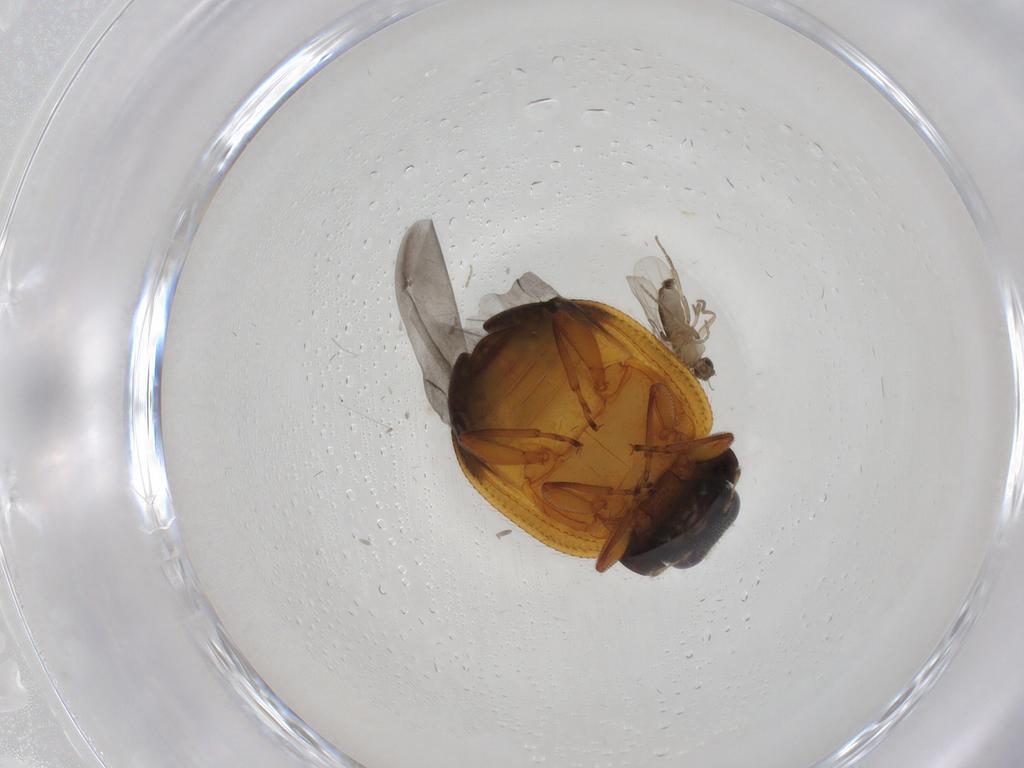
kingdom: Animalia
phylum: Arthropoda
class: Insecta
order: Coleoptera
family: Coccinellidae
